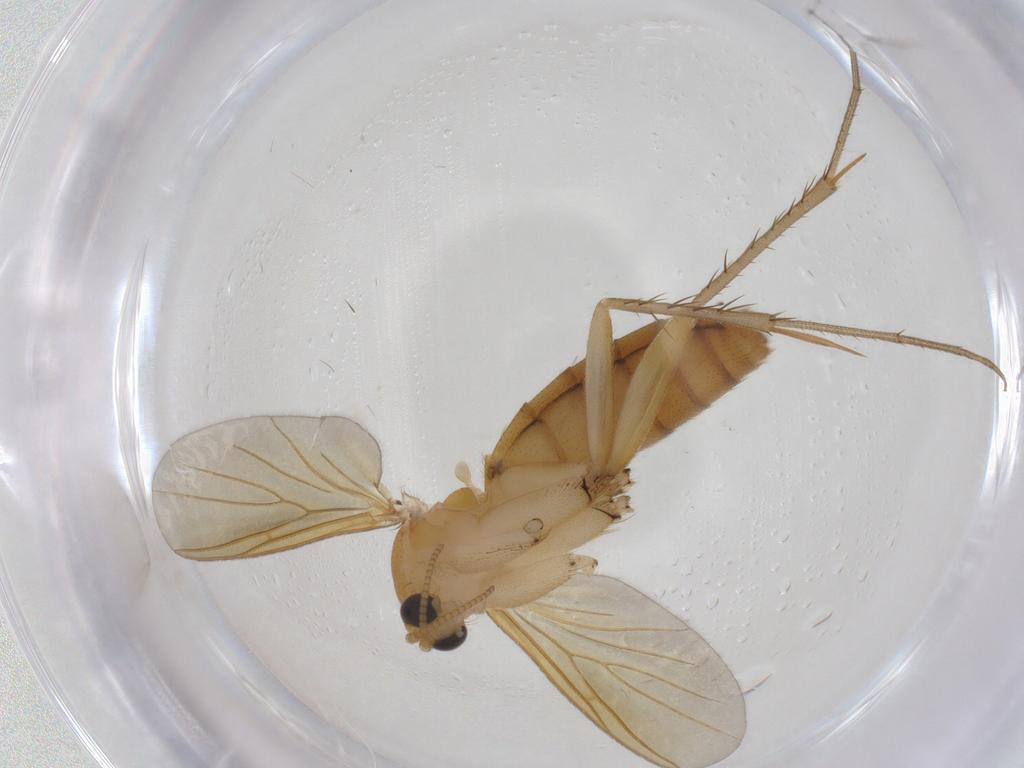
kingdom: Animalia
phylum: Arthropoda
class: Insecta
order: Diptera
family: Mycetophilidae
